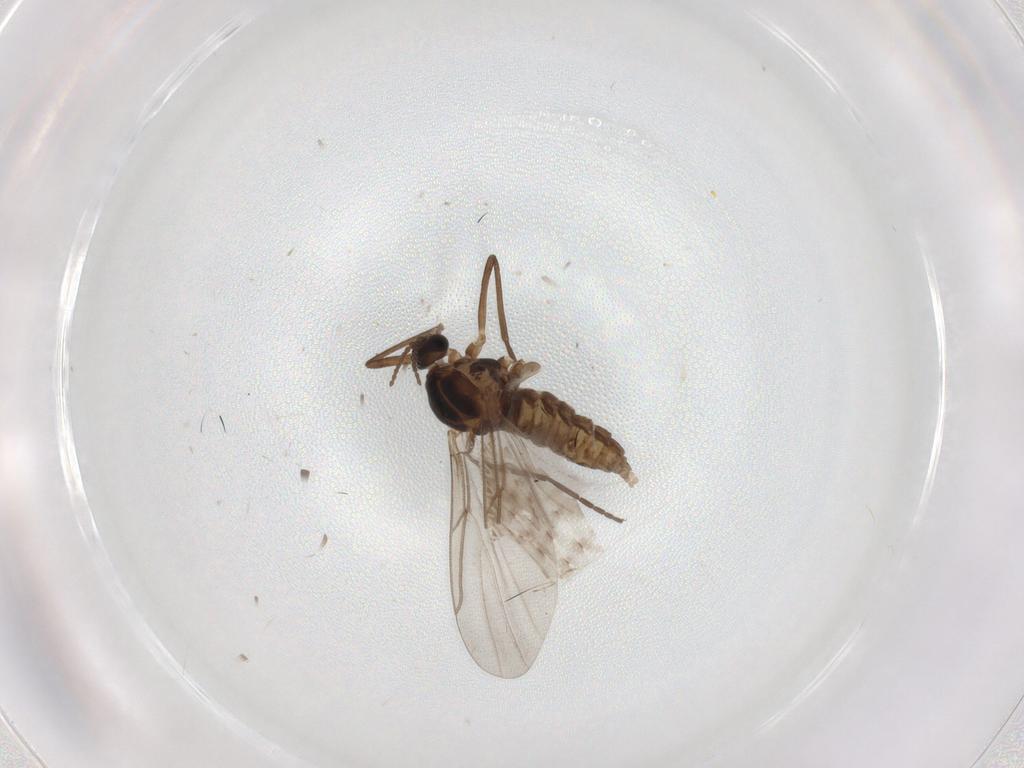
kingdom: Animalia
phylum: Arthropoda
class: Insecta
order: Diptera
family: Cecidomyiidae
